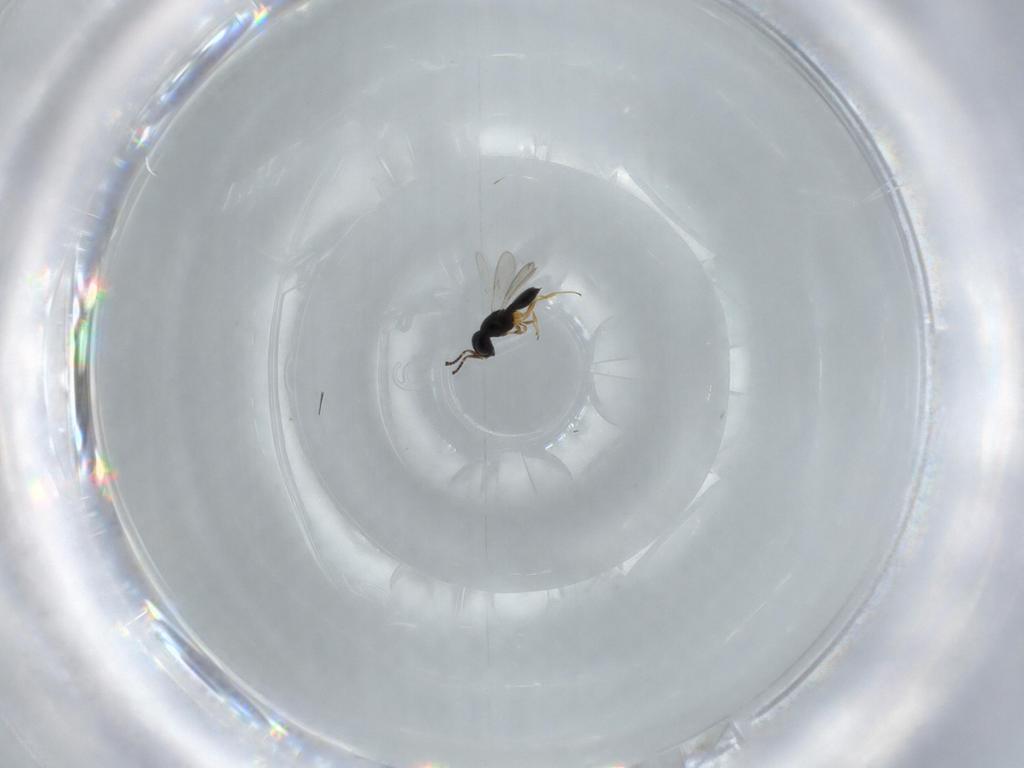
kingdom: Animalia
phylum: Arthropoda
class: Insecta
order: Hymenoptera
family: Scelionidae
